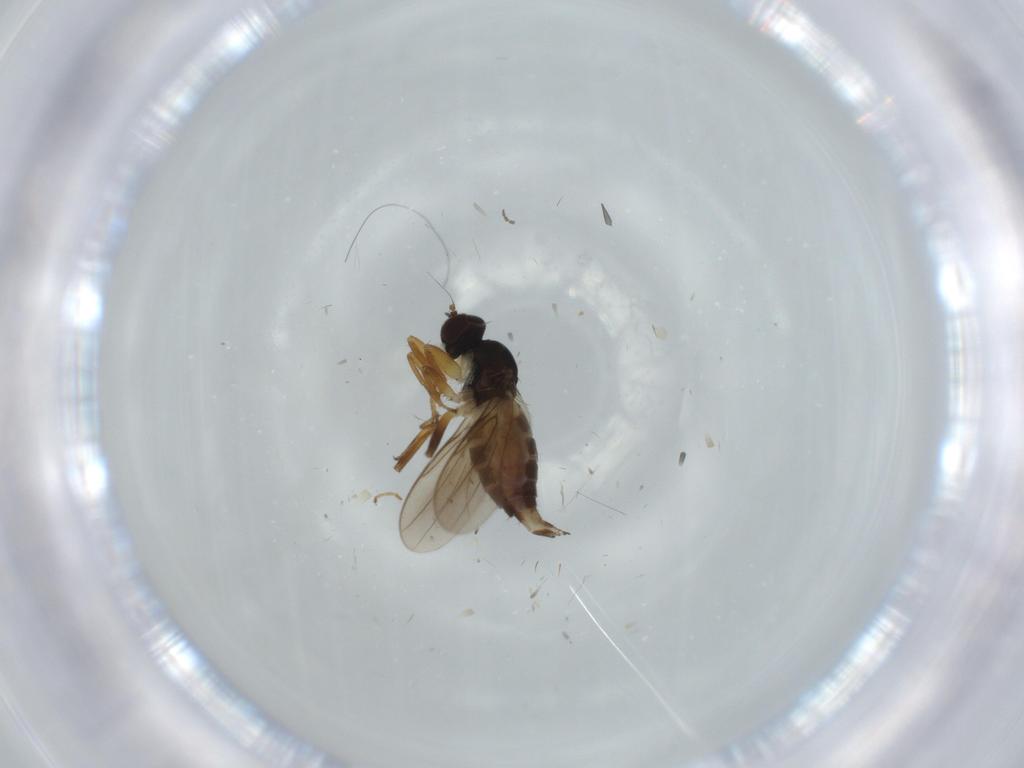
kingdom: Animalia
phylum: Arthropoda
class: Insecta
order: Diptera
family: Hybotidae
